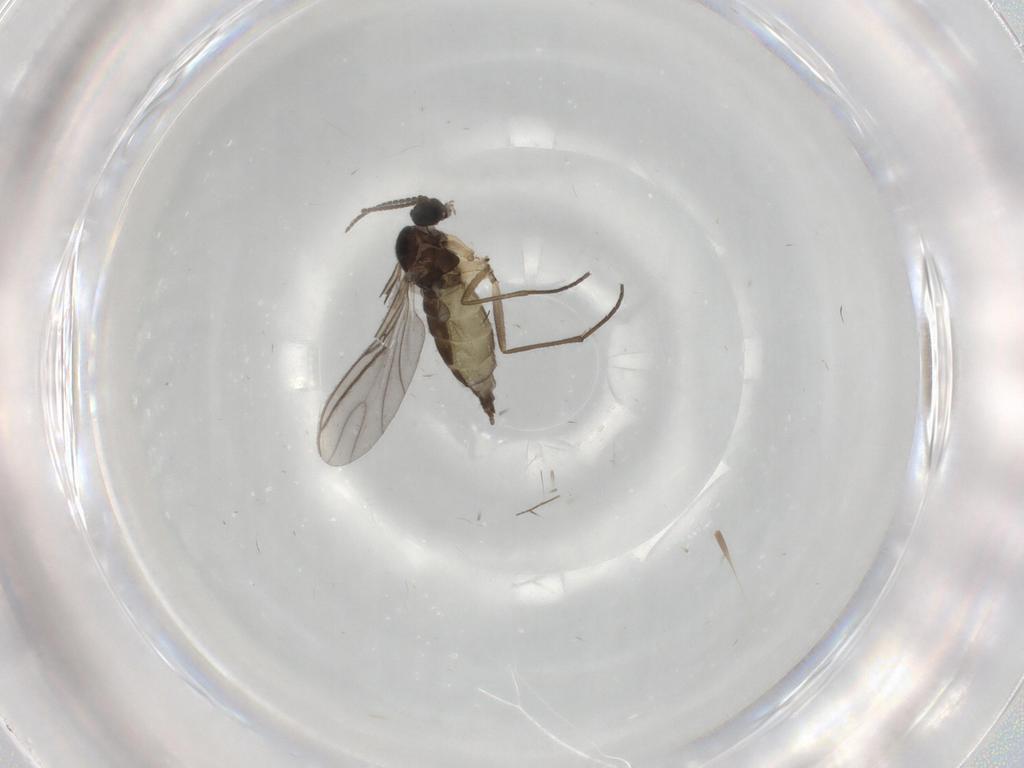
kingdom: Animalia
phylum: Arthropoda
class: Insecta
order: Diptera
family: Sciaridae
